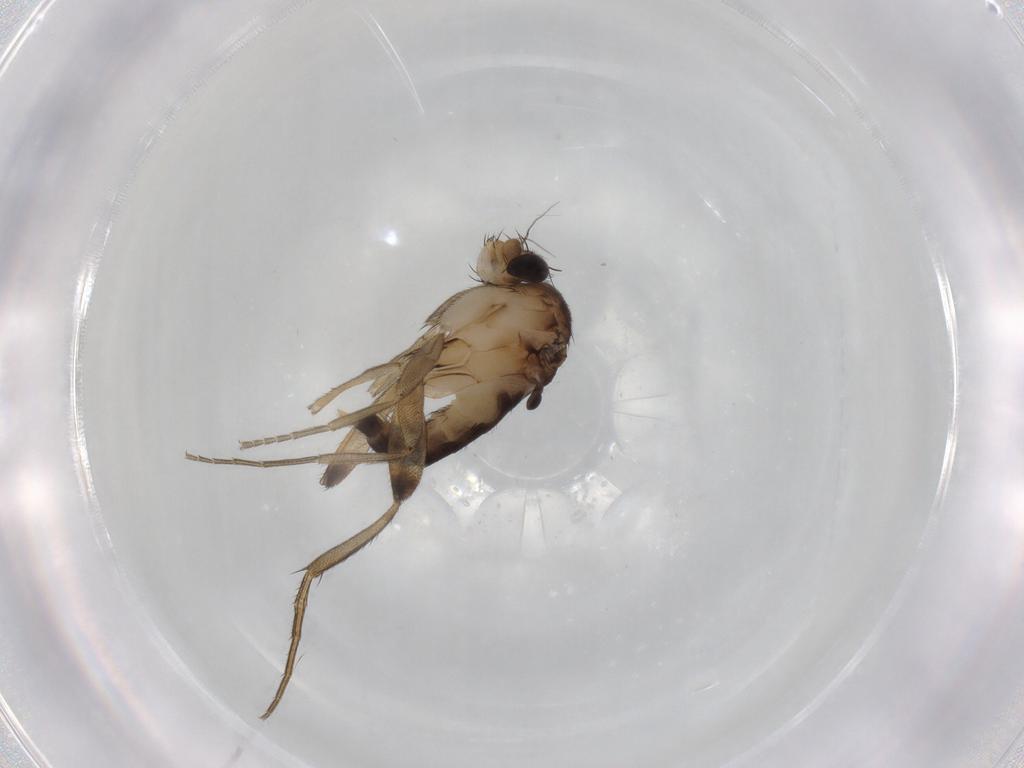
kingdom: Animalia
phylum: Arthropoda
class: Insecta
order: Diptera
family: Phoridae
